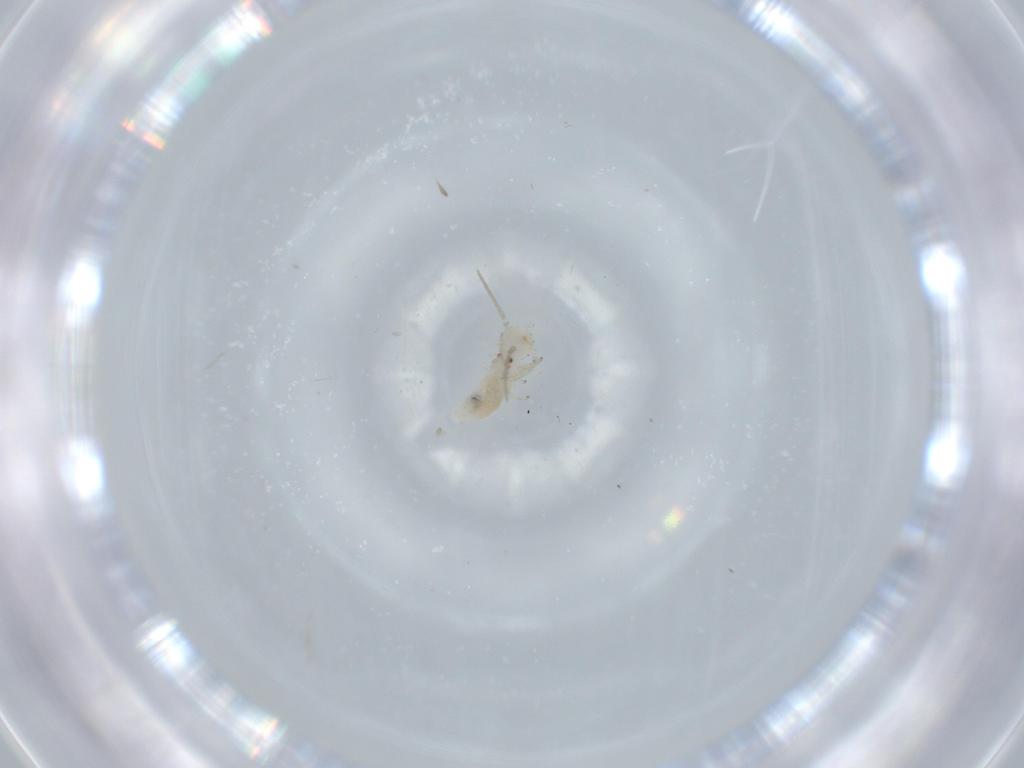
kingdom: Animalia
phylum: Arthropoda
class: Insecta
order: Psocodea
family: Caeciliusidae
